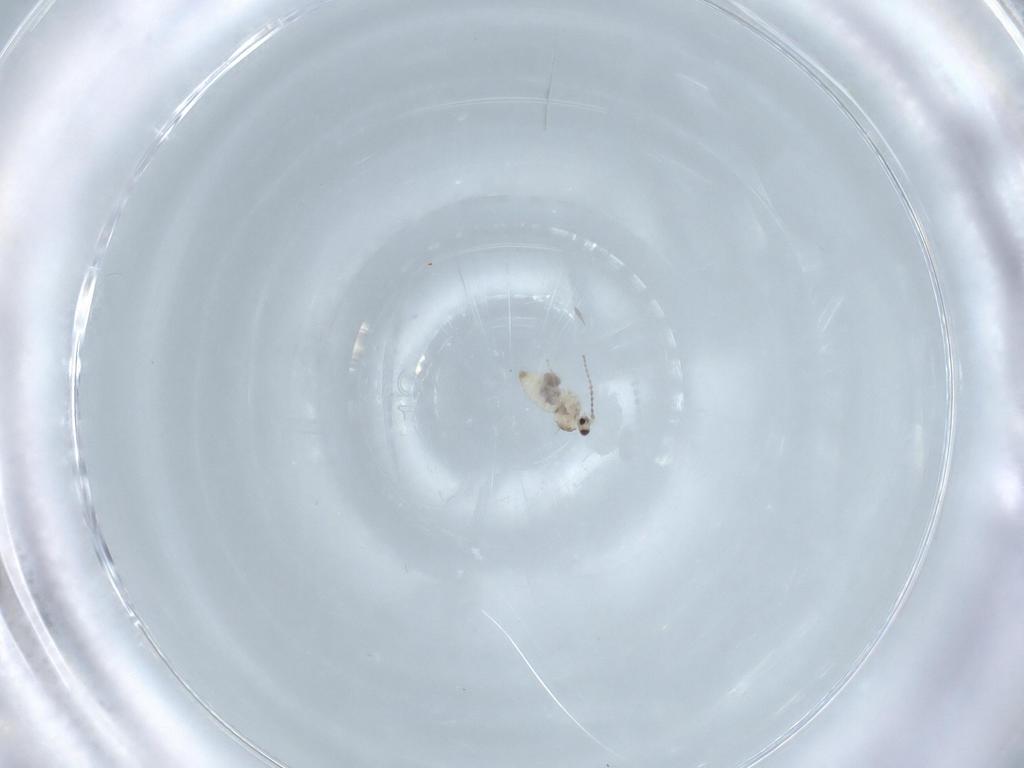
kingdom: Animalia
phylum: Arthropoda
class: Insecta
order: Diptera
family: Cecidomyiidae
